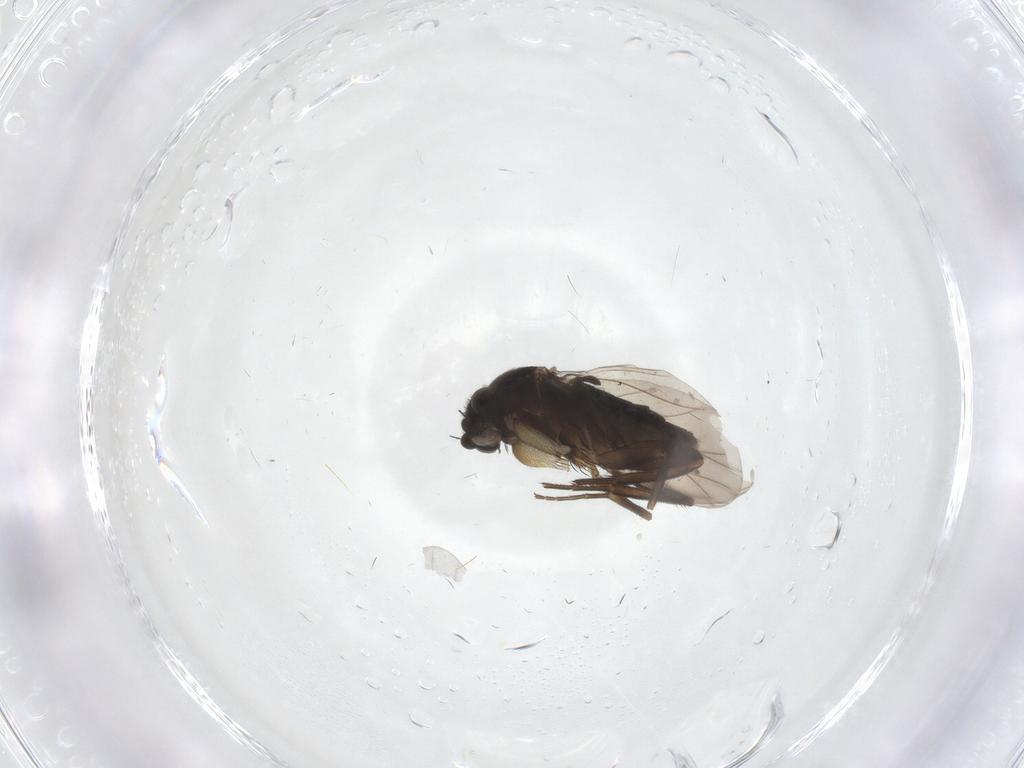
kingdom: Animalia
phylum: Arthropoda
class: Insecta
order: Diptera
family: Phoridae
